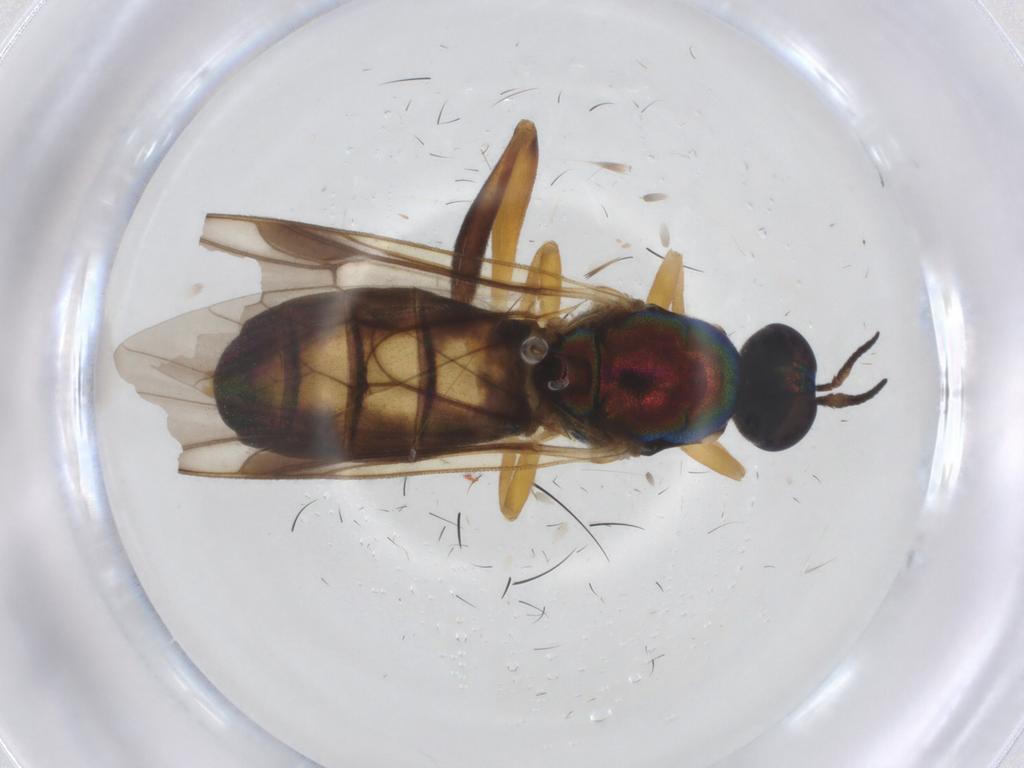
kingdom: Animalia
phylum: Arthropoda
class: Insecta
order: Diptera
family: Stratiomyidae
